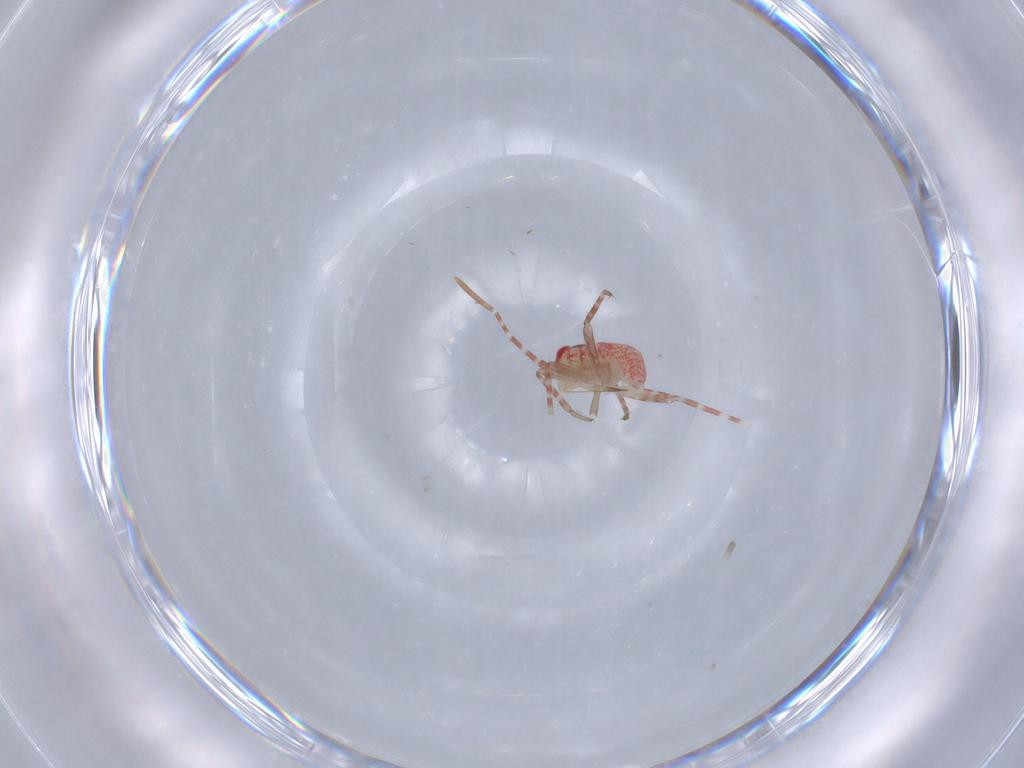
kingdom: Animalia
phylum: Arthropoda
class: Insecta
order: Hemiptera
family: Miridae
